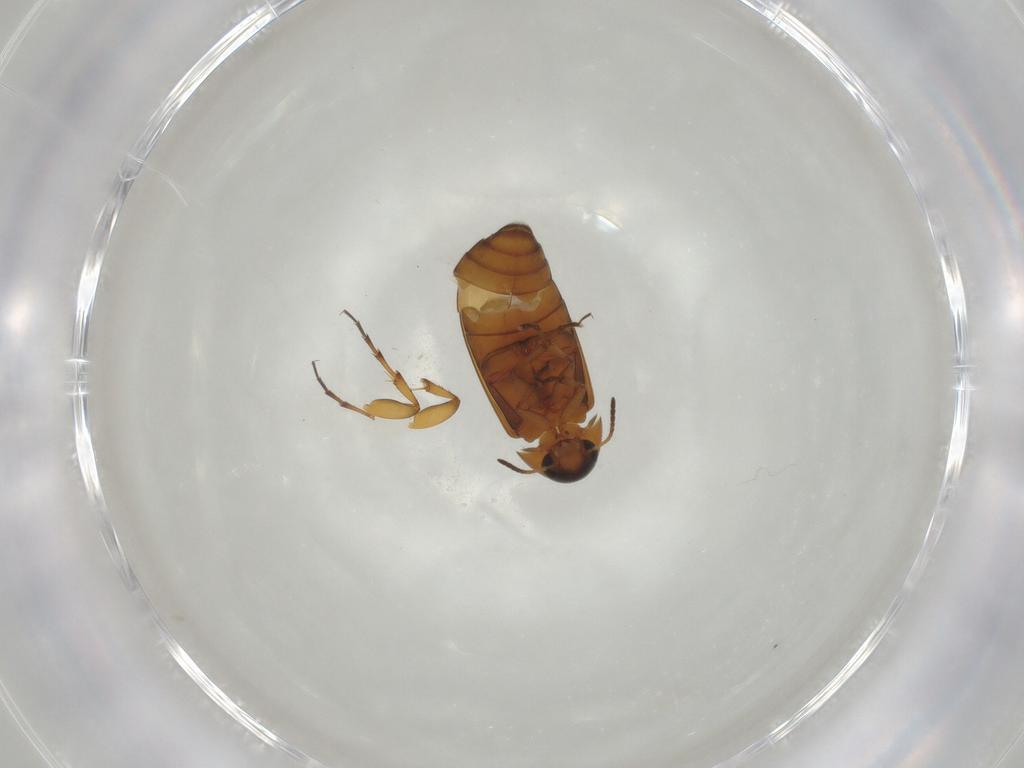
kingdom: Animalia
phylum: Arthropoda
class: Insecta
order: Coleoptera
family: Scraptiidae
